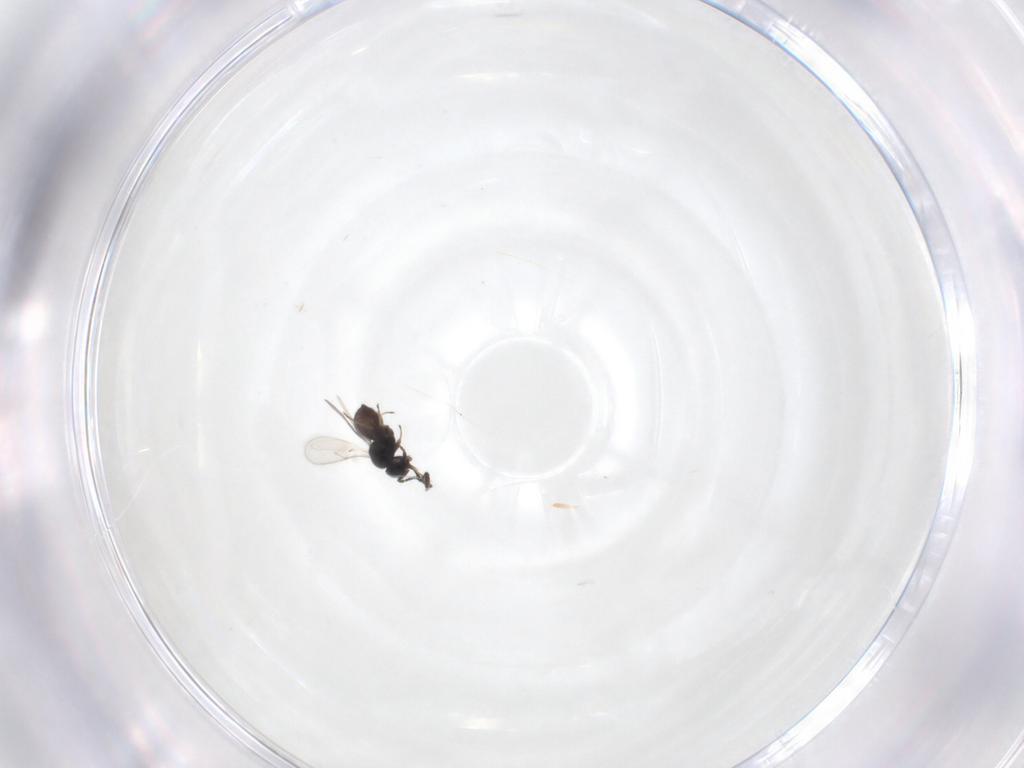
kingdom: Animalia
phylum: Arthropoda
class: Insecta
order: Hymenoptera
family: Scelionidae
